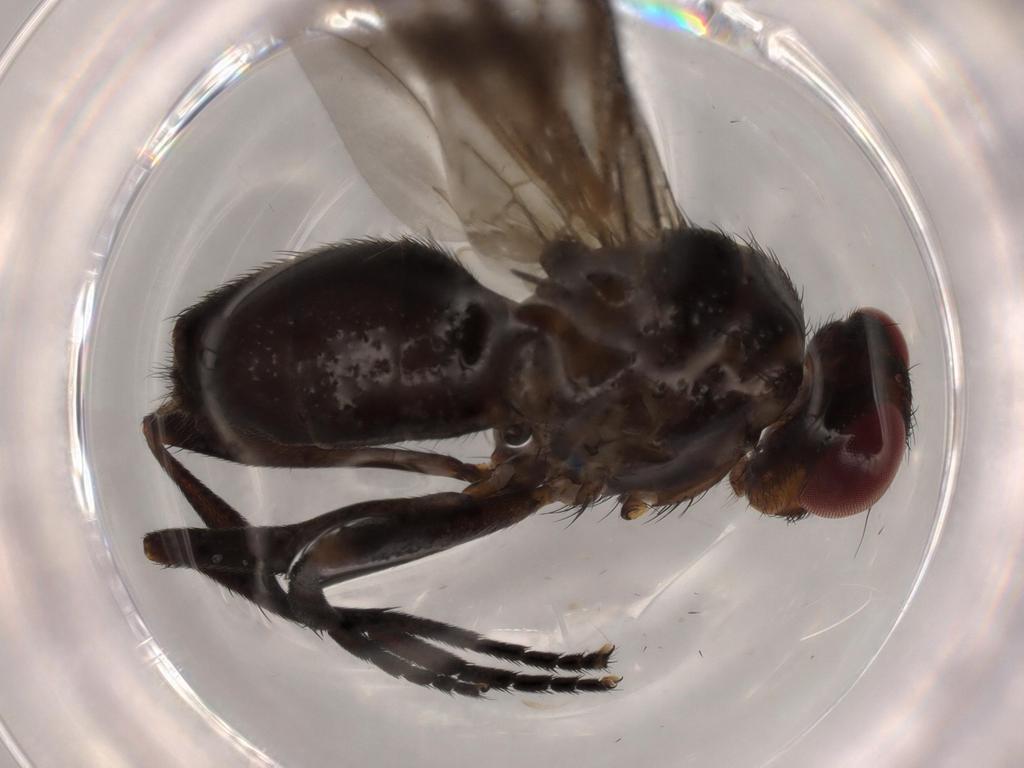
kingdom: Animalia
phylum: Arthropoda
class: Insecta
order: Diptera
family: Calliphoridae
